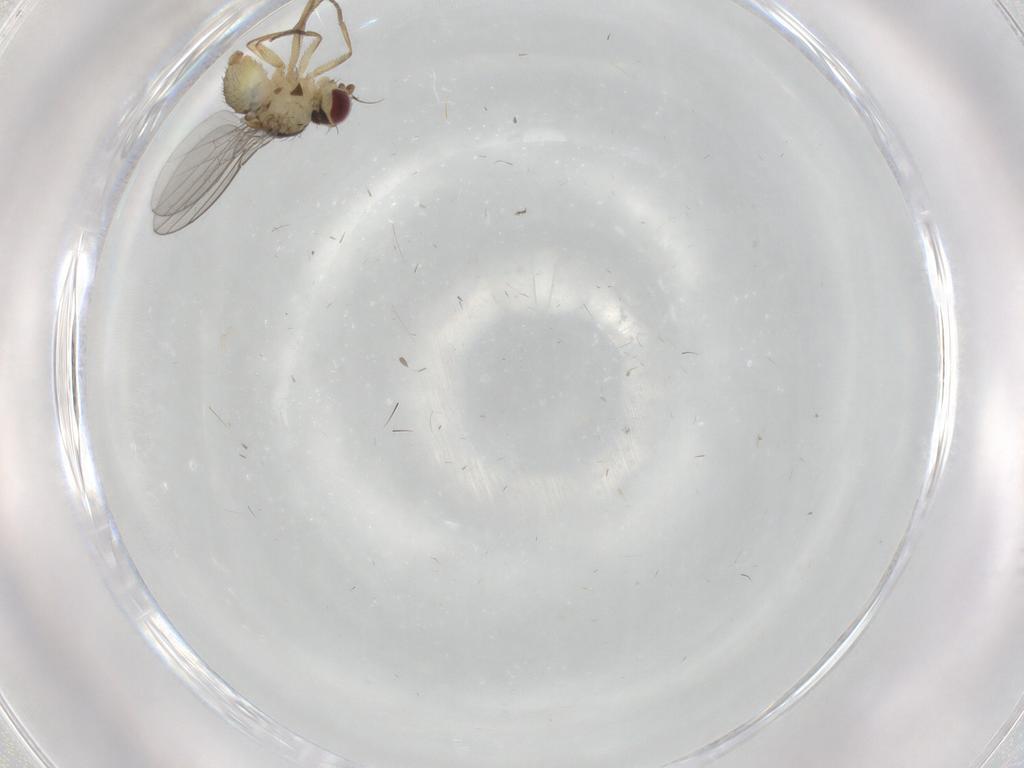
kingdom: Animalia
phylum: Arthropoda
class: Insecta
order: Diptera
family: Agromyzidae
